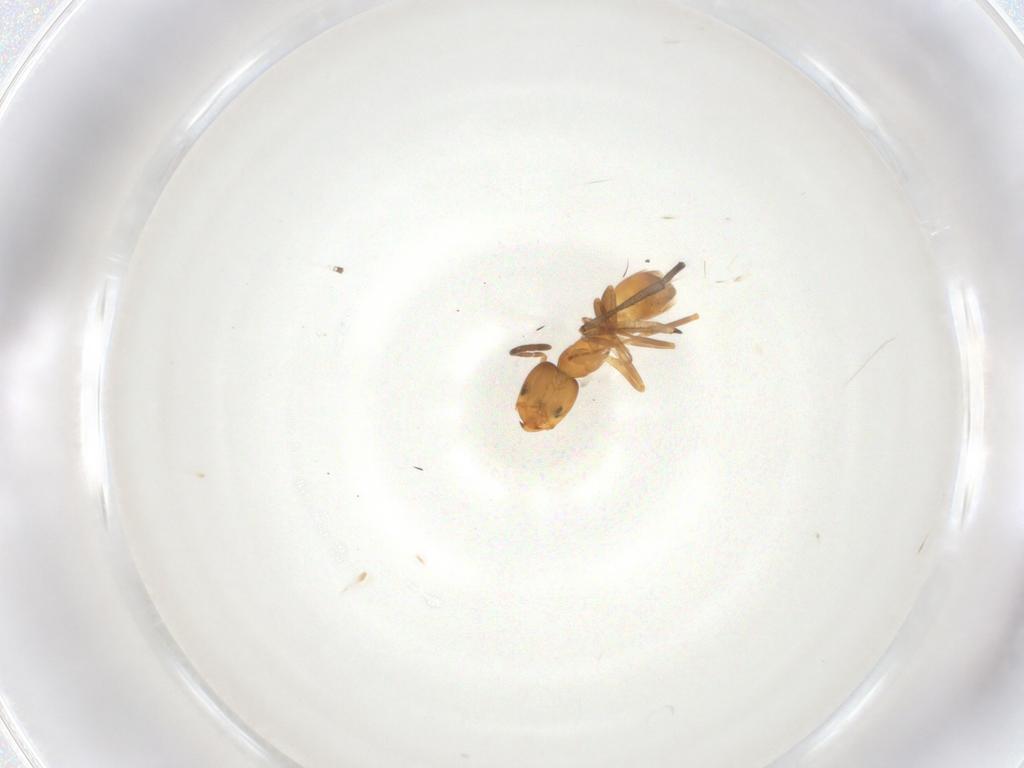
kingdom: Animalia
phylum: Arthropoda
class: Insecta
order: Hymenoptera
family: Formicidae
